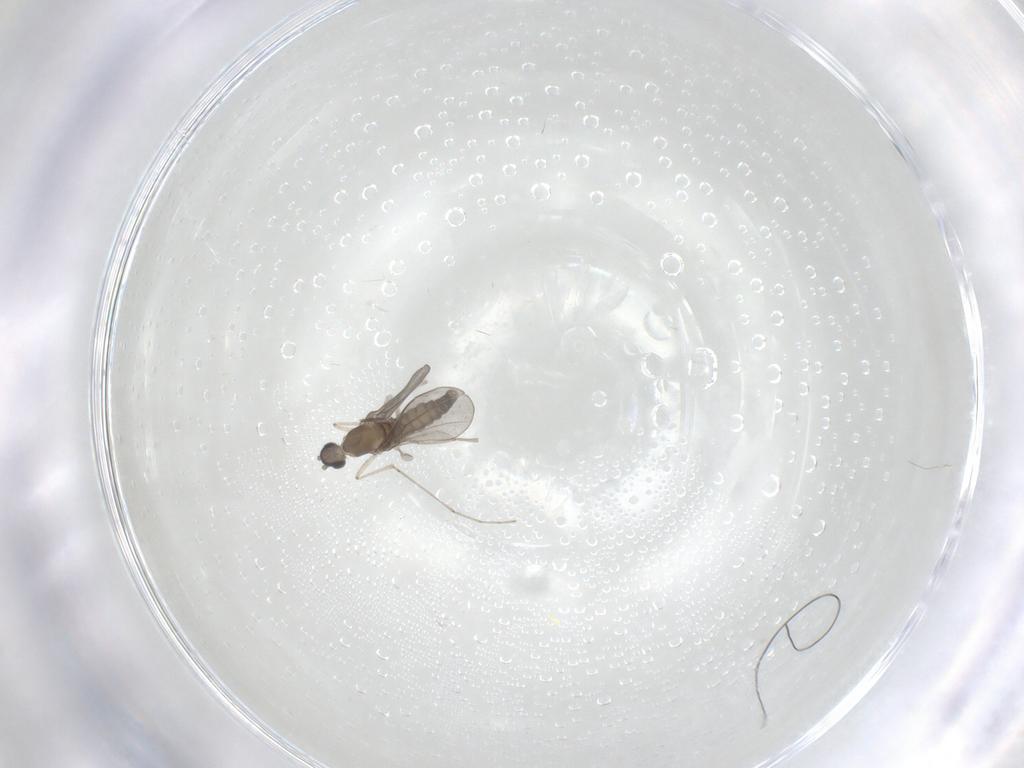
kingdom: Animalia
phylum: Arthropoda
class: Insecta
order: Diptera
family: Cecidomyiidae
